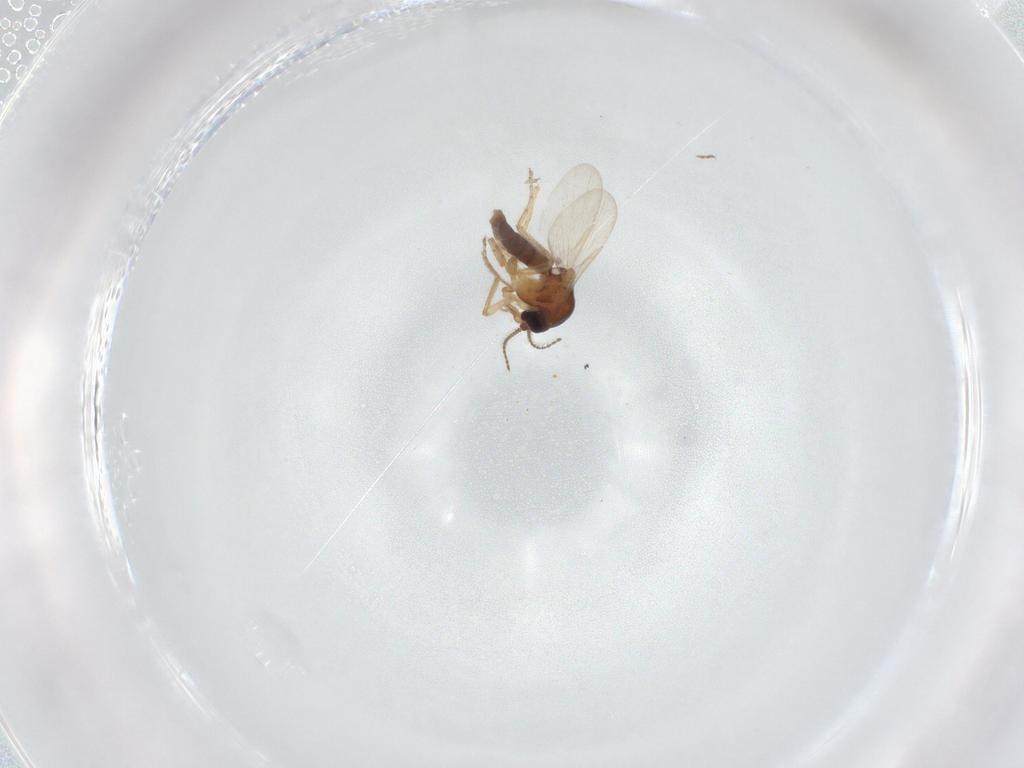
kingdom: Animalia
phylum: Arthropoda
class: Insecta
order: Diptera
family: Ceratopogonidae
